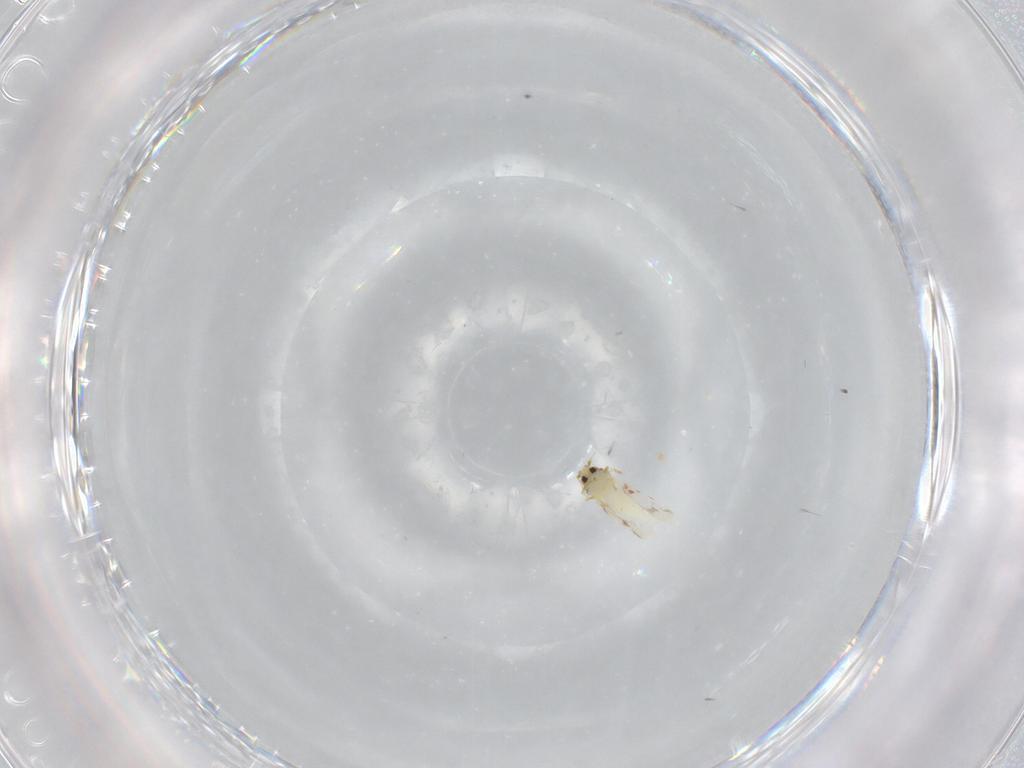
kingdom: Animalia
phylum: Arthropoda
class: Insecta
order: Hemiptera
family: Aleyrodidae
